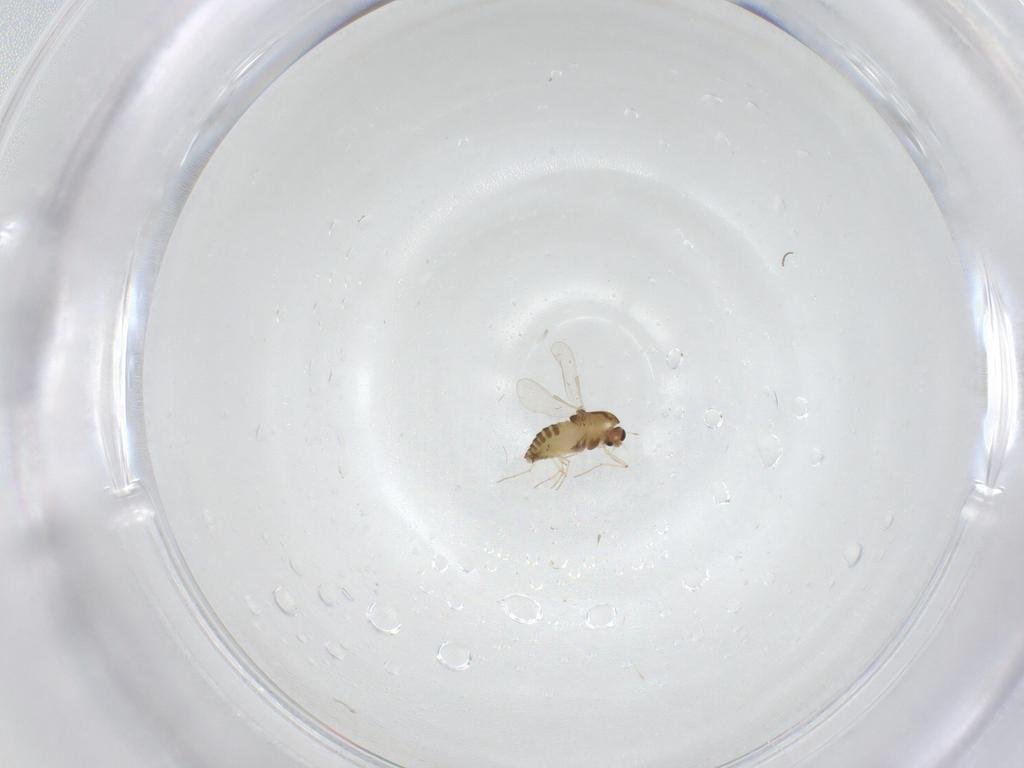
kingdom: Animalia
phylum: Arthropoda
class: Insecta
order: Diptera
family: Chironomidae
